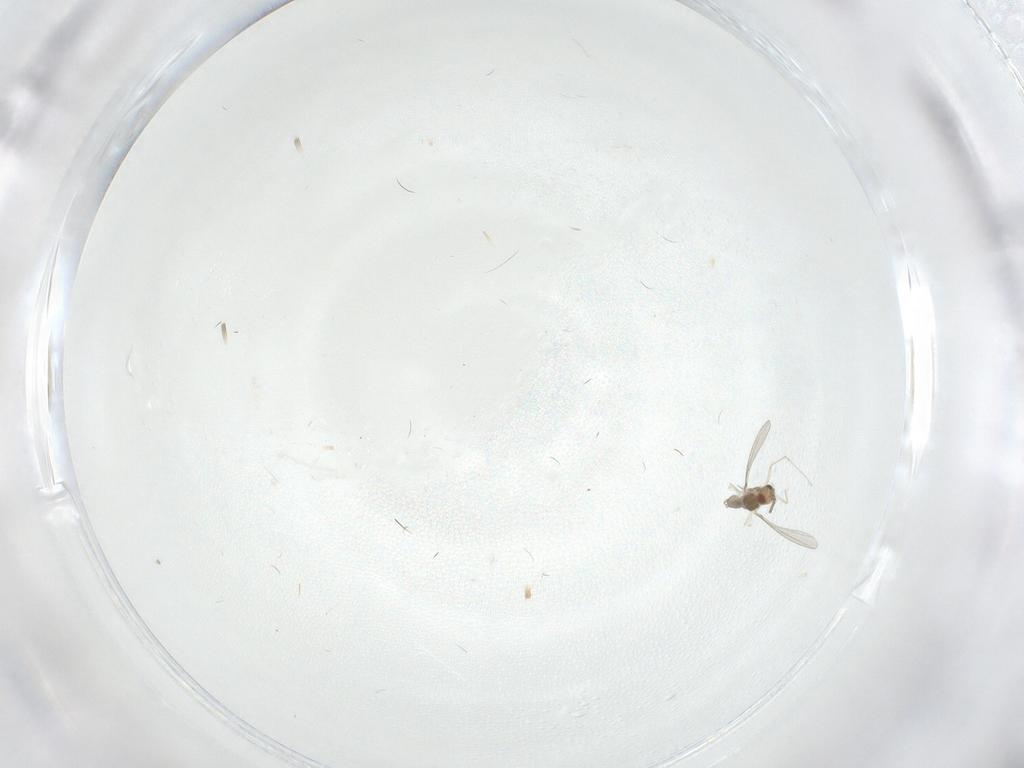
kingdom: Animalia
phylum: Arthropoda
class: Insecta
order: Diptera
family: Cecidomyiidae
